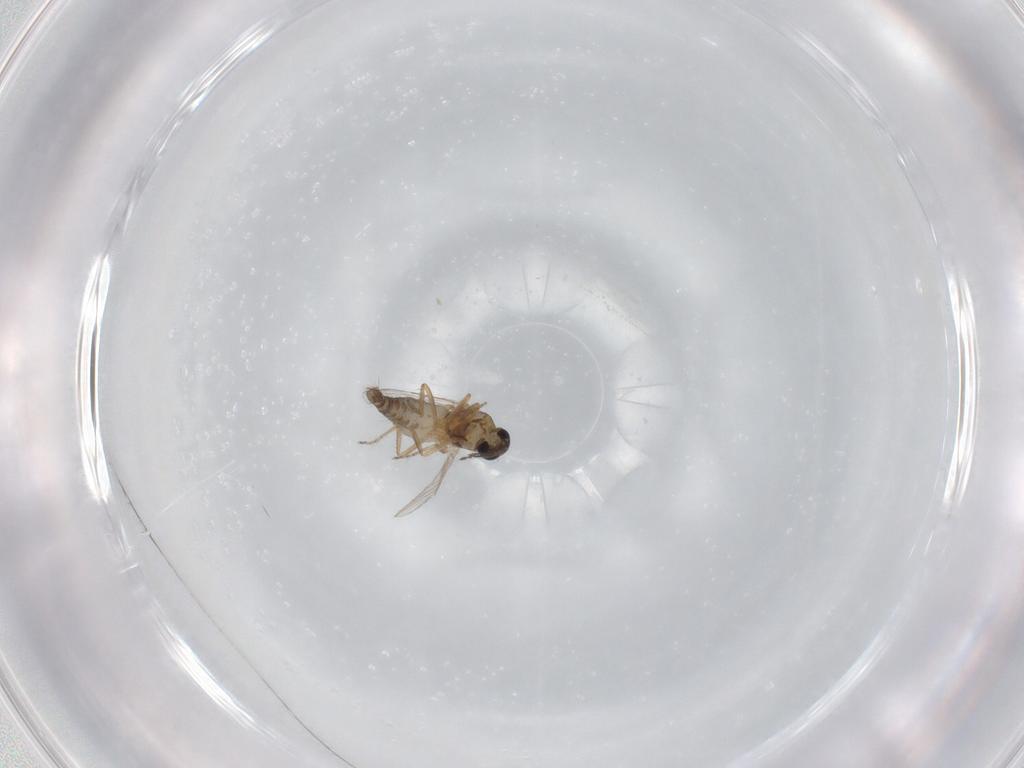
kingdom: Animalia
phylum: Arthropoda
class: Insecta
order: Diptera
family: Ceratopogonidae
